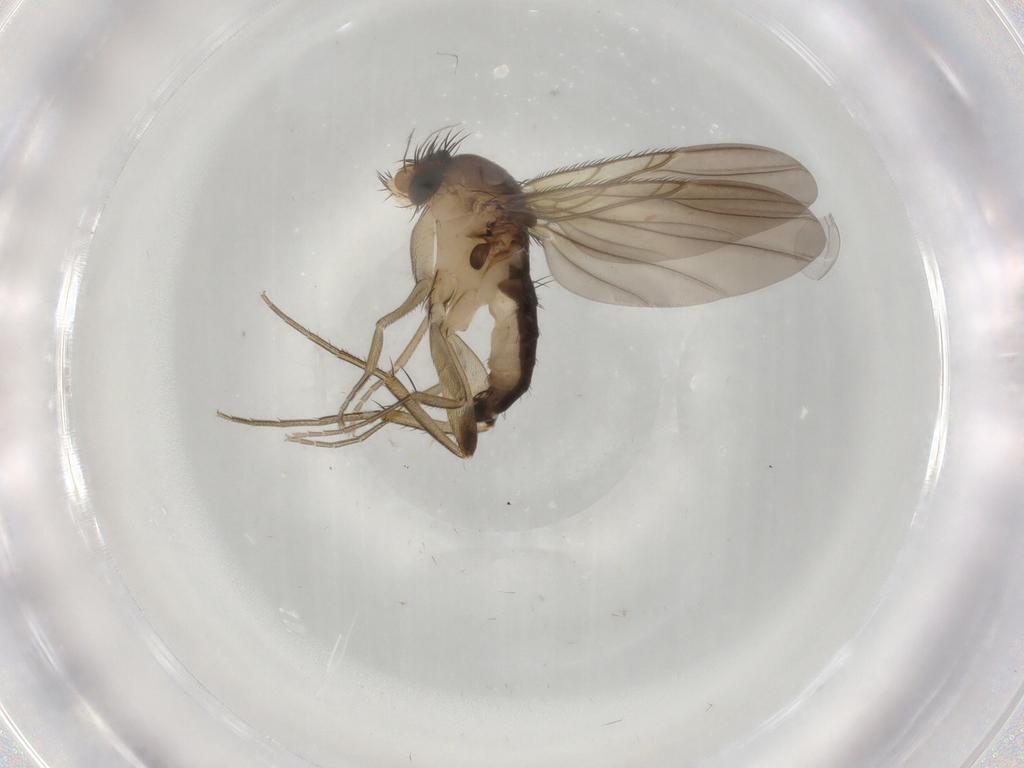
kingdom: Animalia
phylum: Arthropoda
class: Insecta
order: Diptera
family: Phoridae
